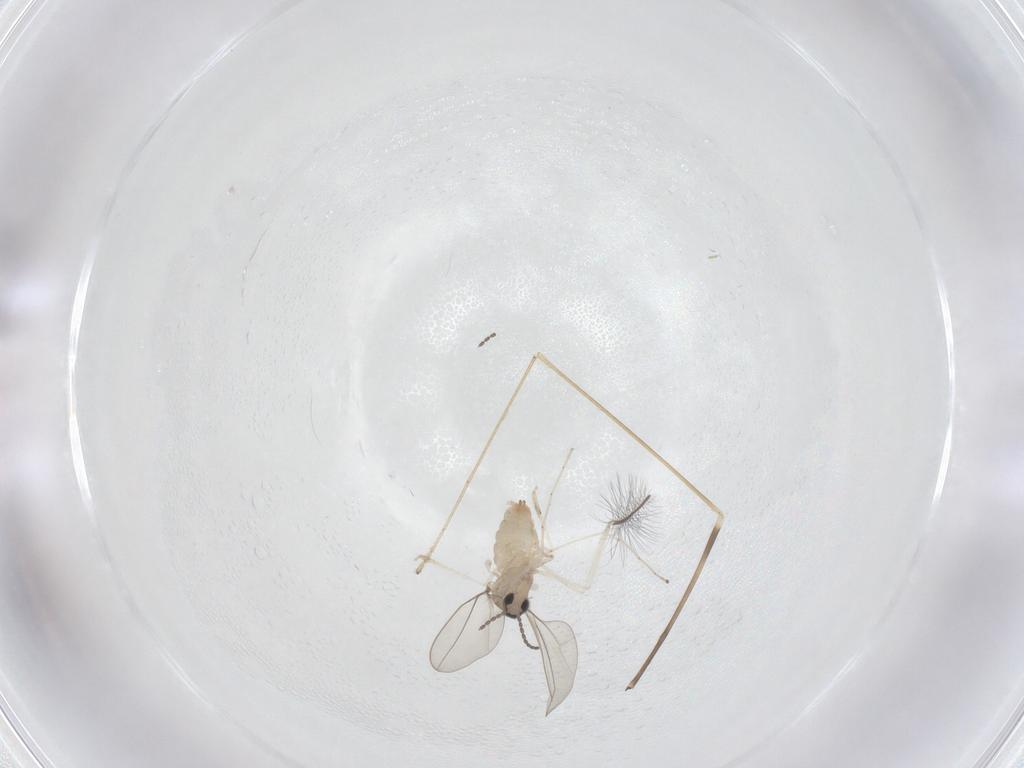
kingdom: Animalia
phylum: Arthropoda
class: Insecta
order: Diptera
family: Cecidomyiidae
